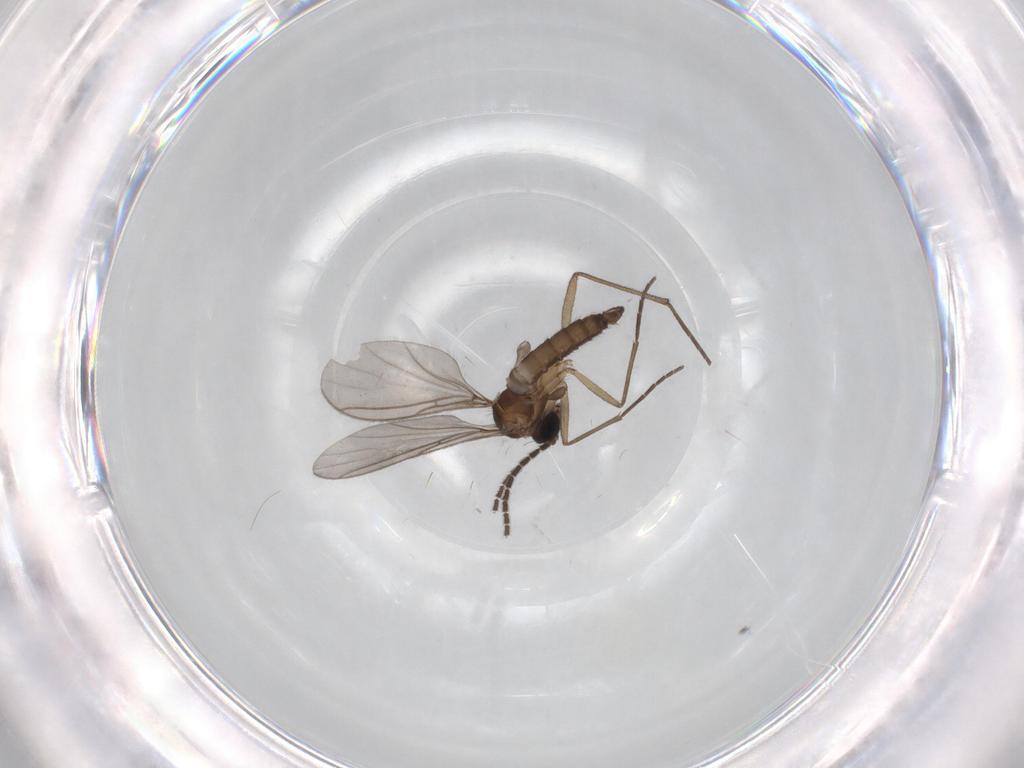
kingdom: Animalia
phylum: Arthropoda
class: Insecta
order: Diptera
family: Sciaridae
